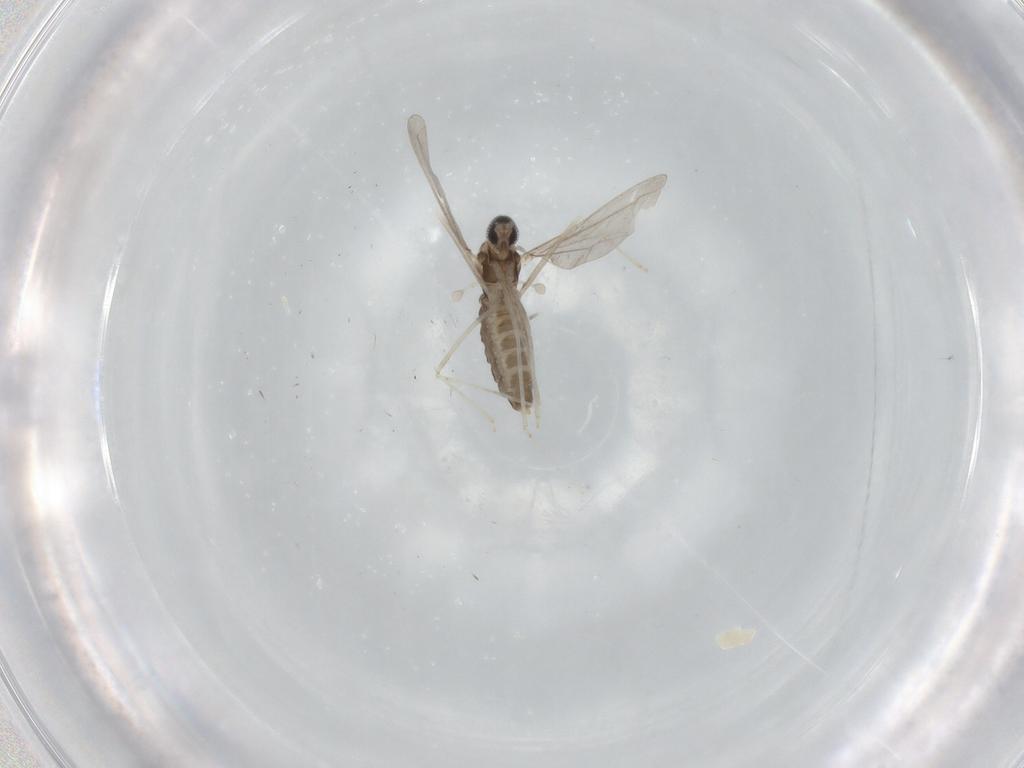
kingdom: Animalia
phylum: Arthropoda
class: Insecta
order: Diptera
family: Cecidomyiidae
